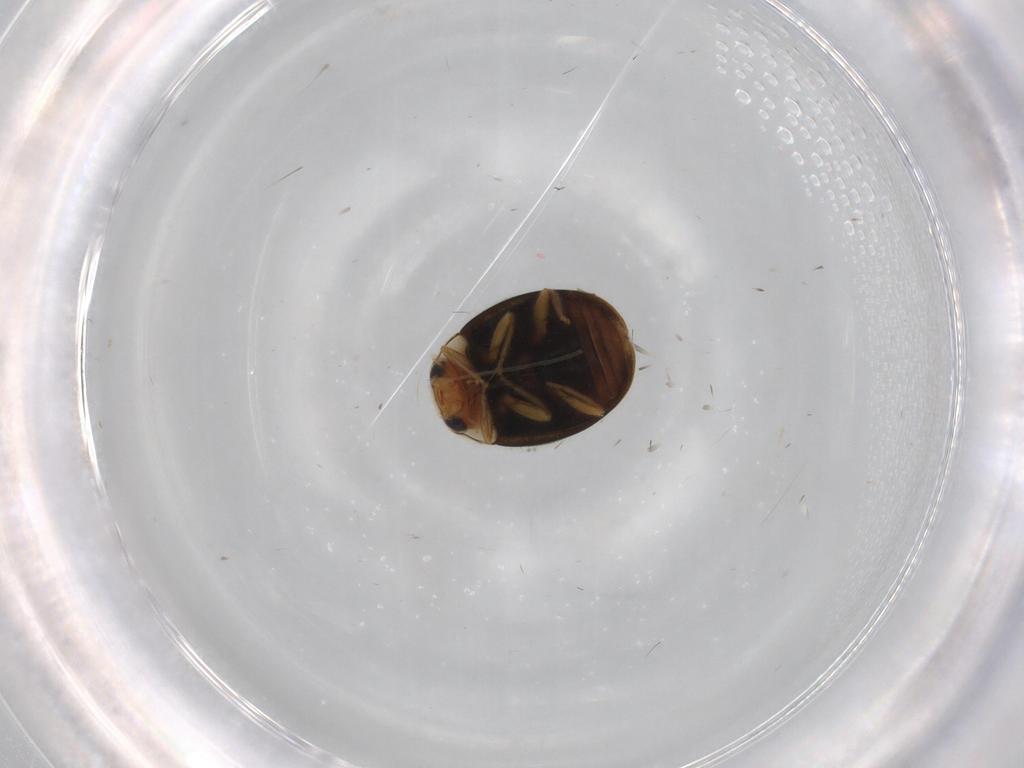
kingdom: Animalia
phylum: Arthropoda
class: Insecta
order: Coleoptera
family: Coccinellidae
